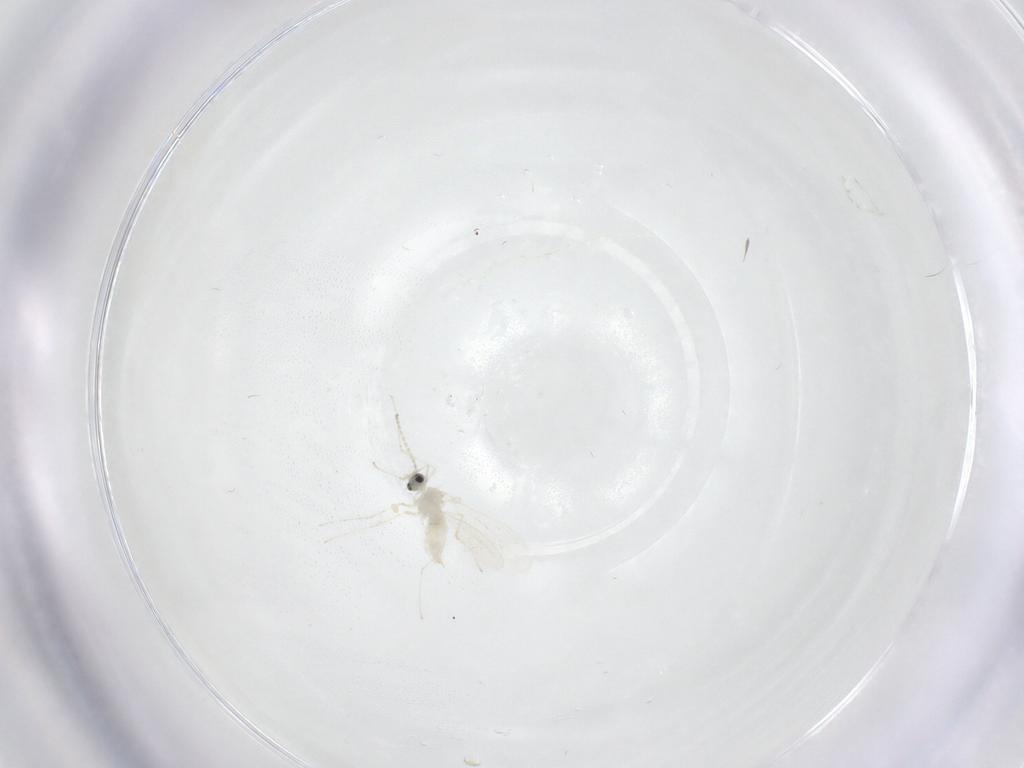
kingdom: Animalia
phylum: Arthropoda
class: Insecta
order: Diptera
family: Cecidomyiidae
